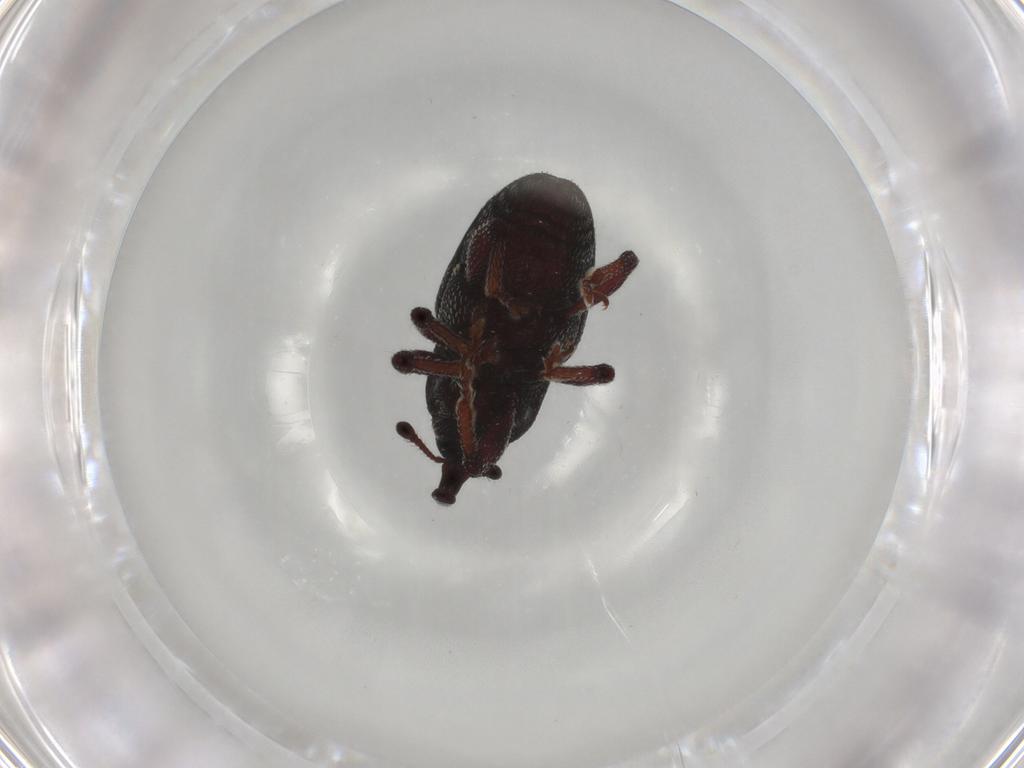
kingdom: Animalia
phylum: Arthropoda
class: Insecta
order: Coleoptera
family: Curculionidae
